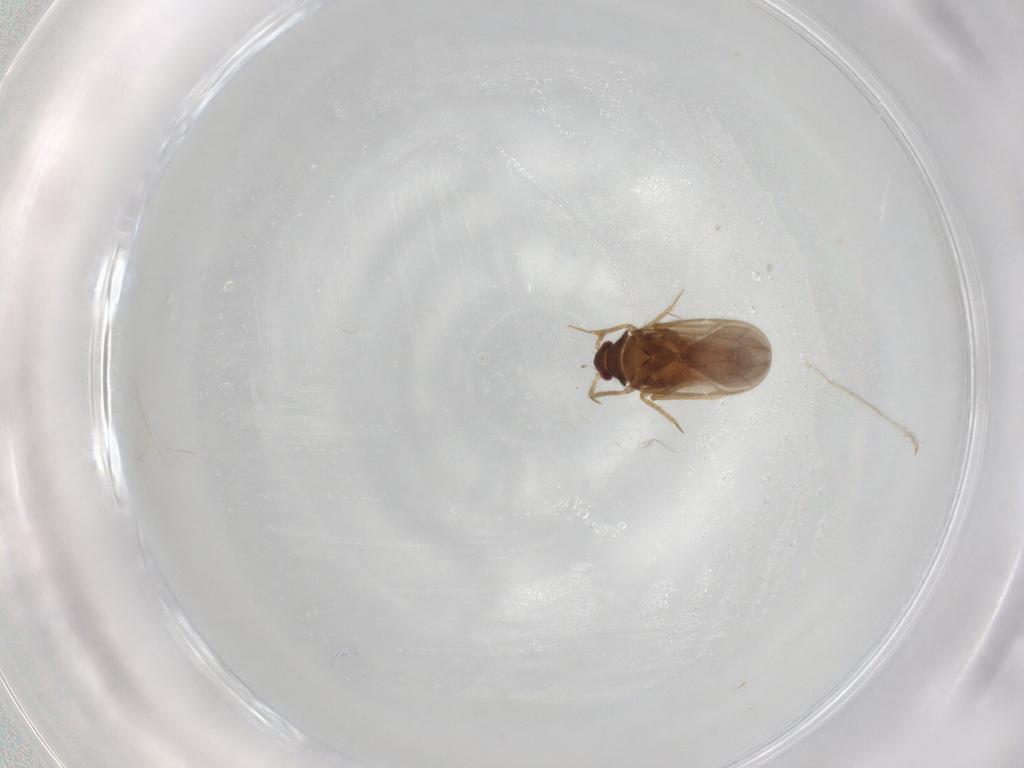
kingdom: Animalia
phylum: Arthropoda
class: Insecta
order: Hemiptera
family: Ceratocombidae
